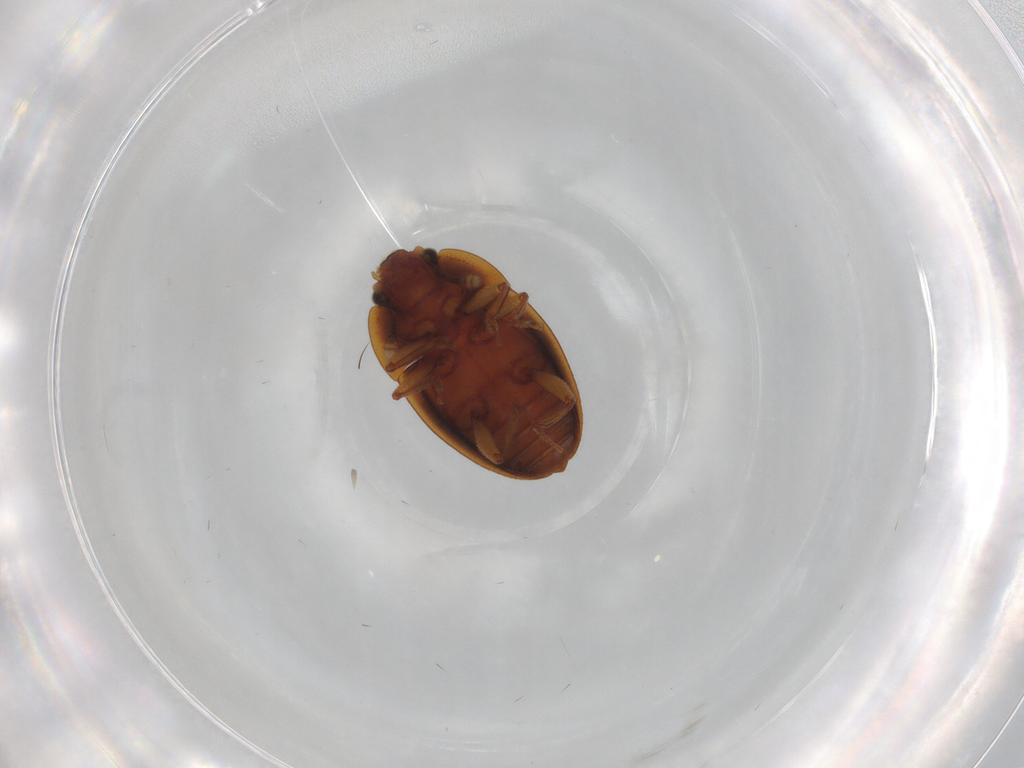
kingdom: Animalia
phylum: Arthropoda
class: Insecta
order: Coleoptera
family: Nitidulidae
